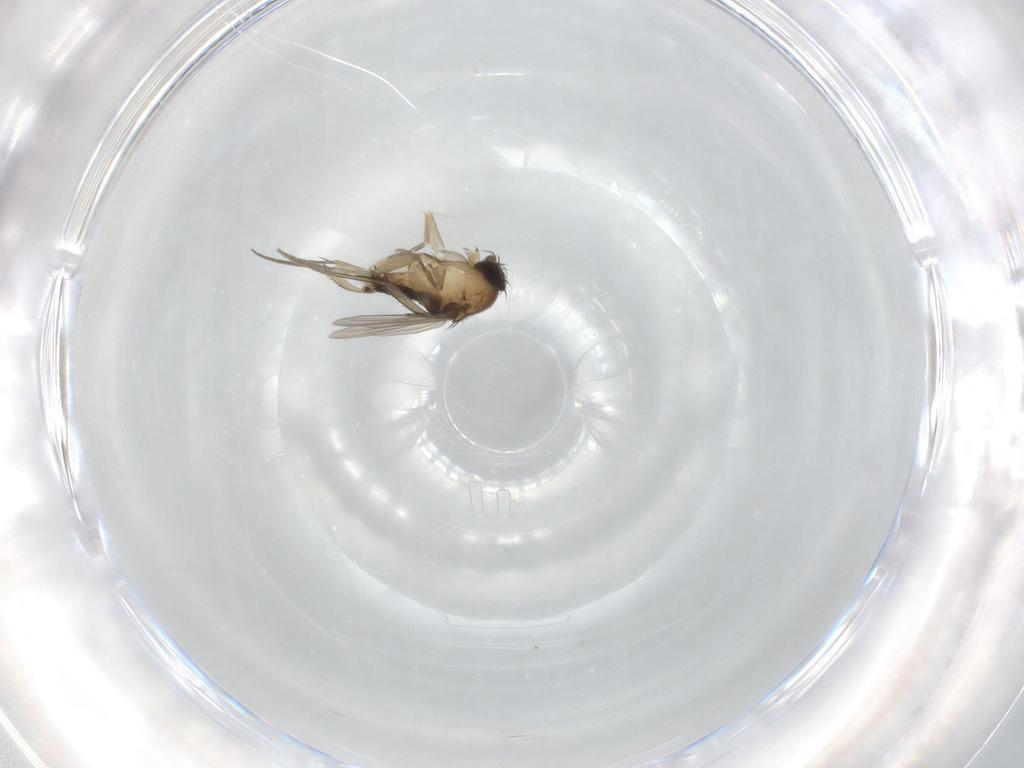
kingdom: Animalia
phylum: Arthropoda
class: Insecta
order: Diptera
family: Phoridae
